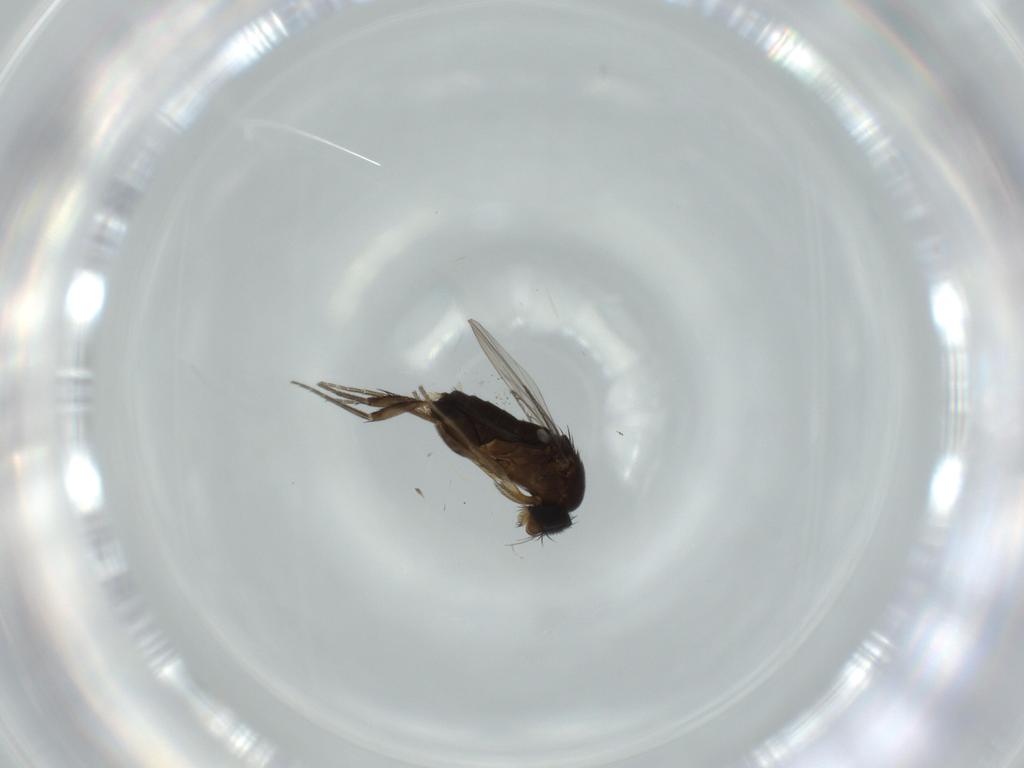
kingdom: Animalia
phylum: Arthropoda
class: Insecta
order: Diptera
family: Phoridae
